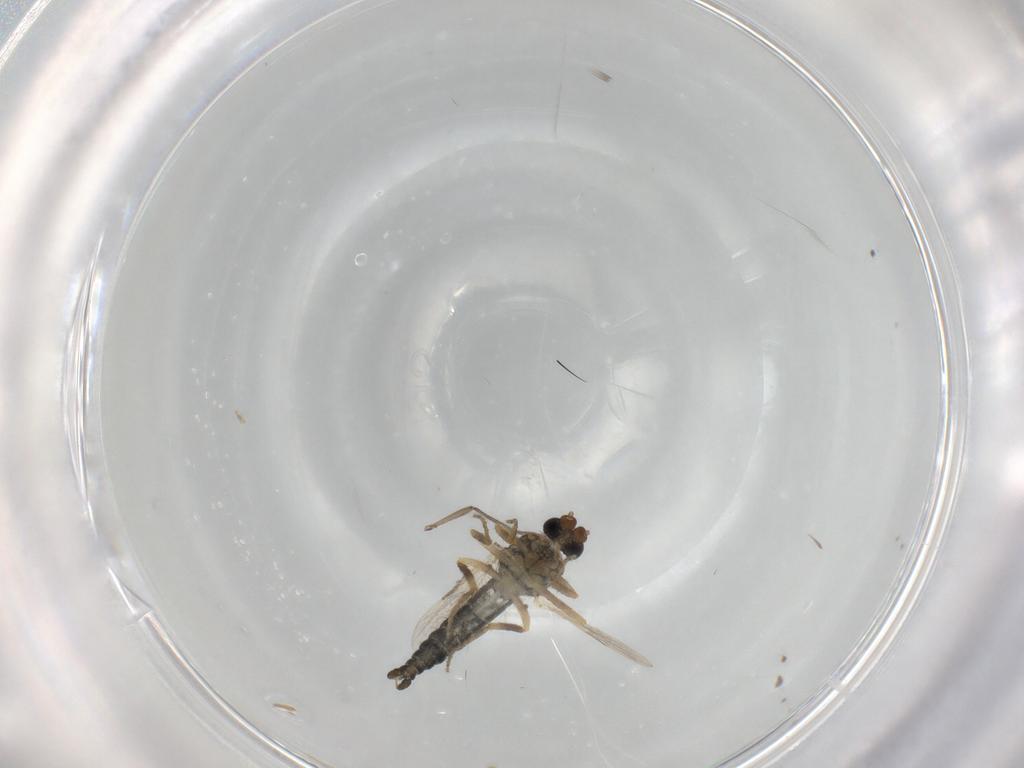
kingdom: Animalia
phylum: Arthropoda
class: Insecta
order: Diptera
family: Ceratopogonidae
